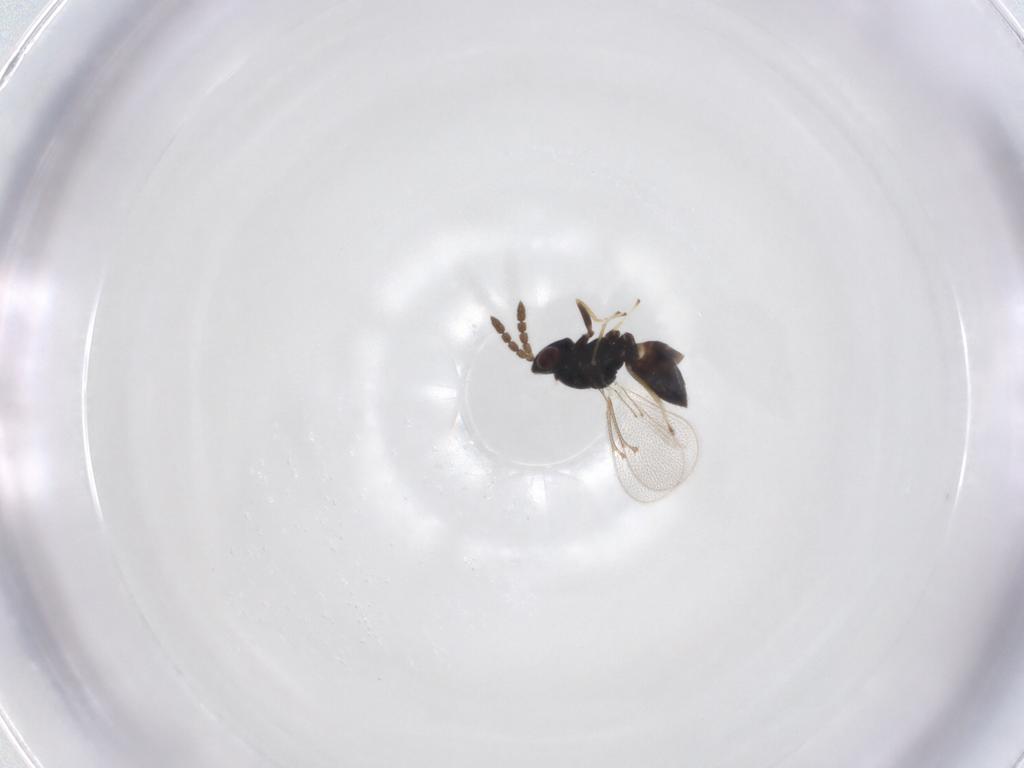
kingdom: Animalia
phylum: Arthropoda
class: Insecta
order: Hymenoptera
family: Eulophidae
